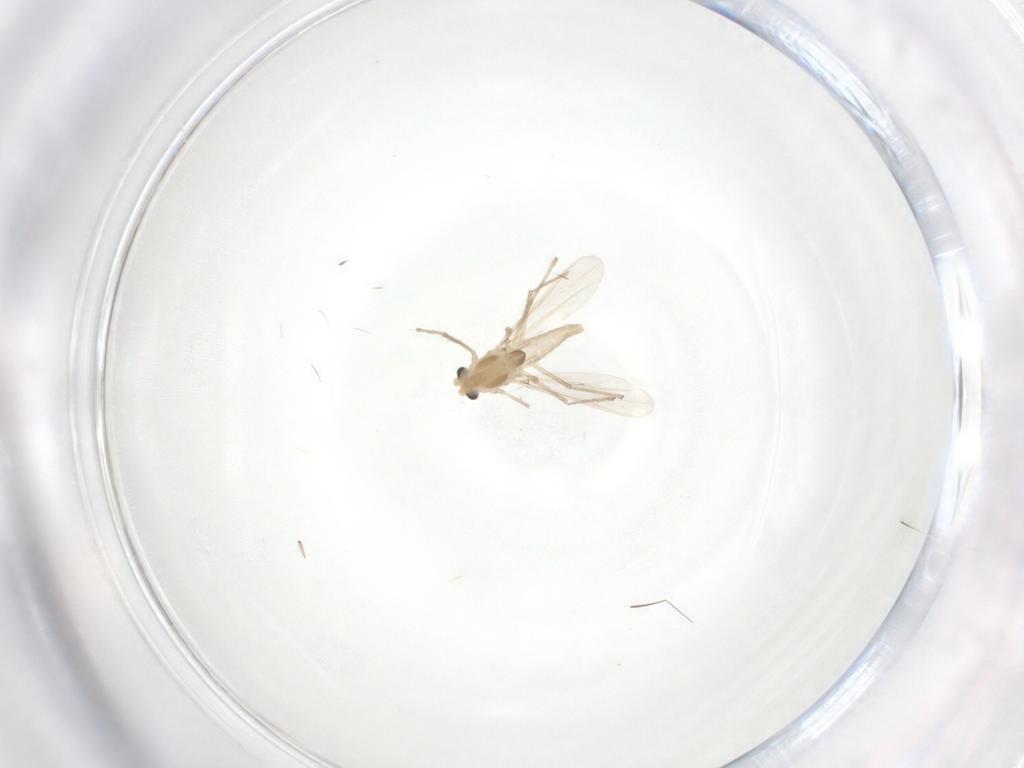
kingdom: Animalia
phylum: Arthropoda
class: Insecta
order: Diptera
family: Chironomidae
